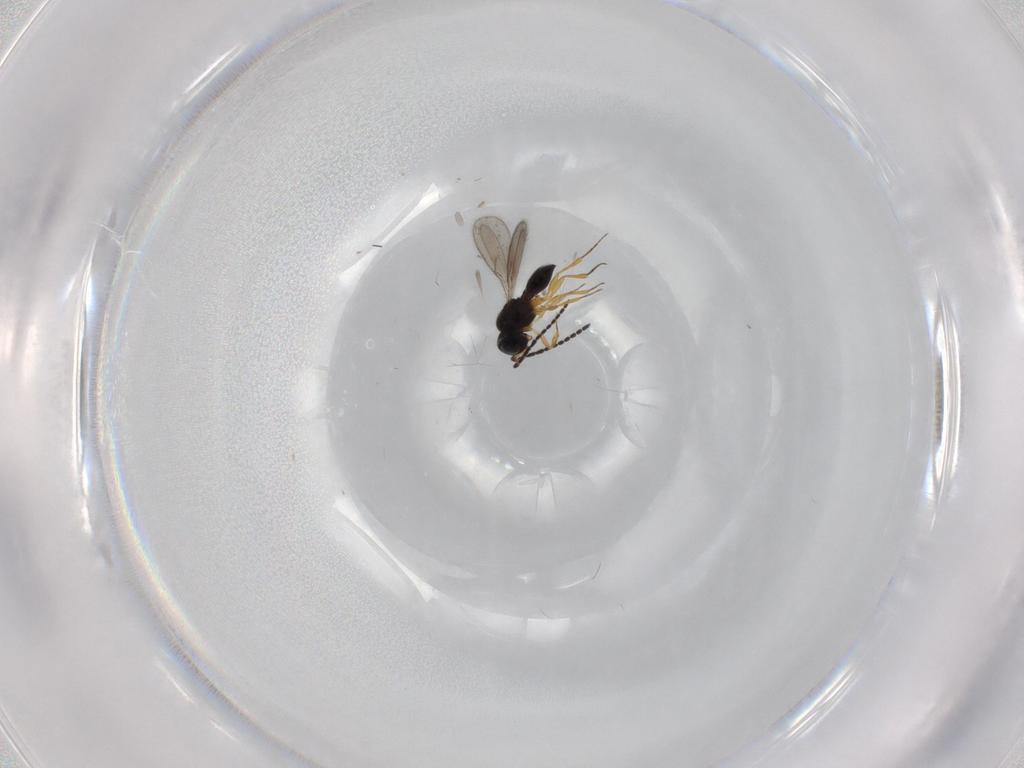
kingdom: Animalia
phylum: Arthropoda
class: Insecta
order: Hymenoptera
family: Scelionidae
